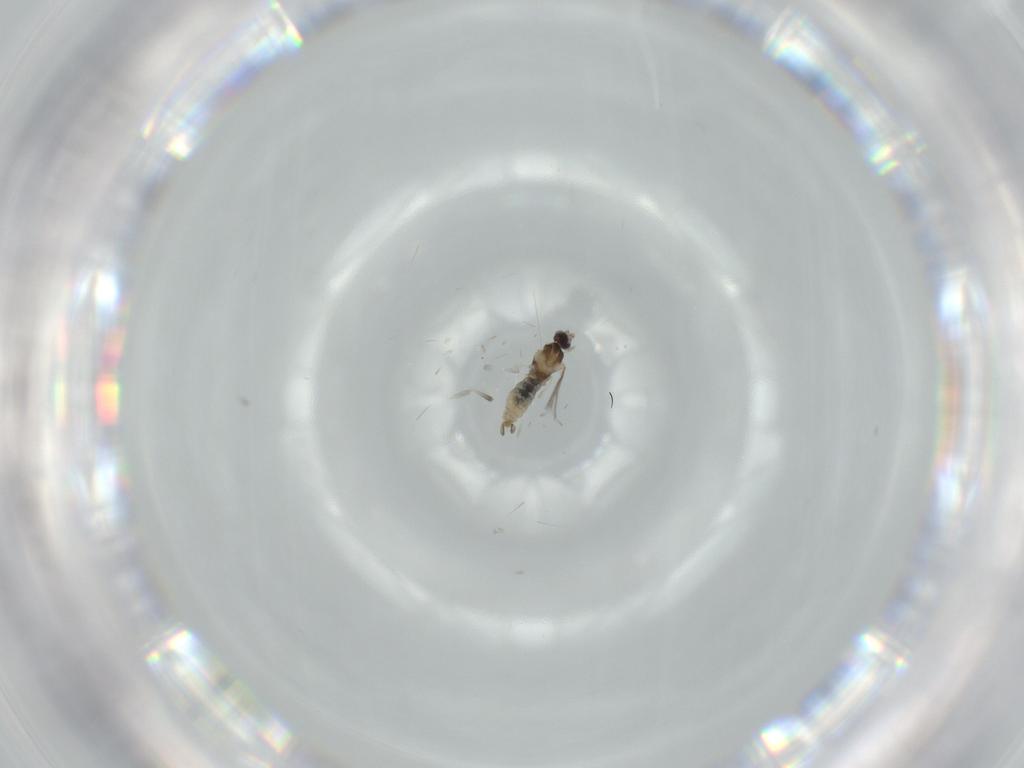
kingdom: Animalia
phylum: Arthropoda
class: Insecta
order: Diptera
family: Cecidomyiidae
